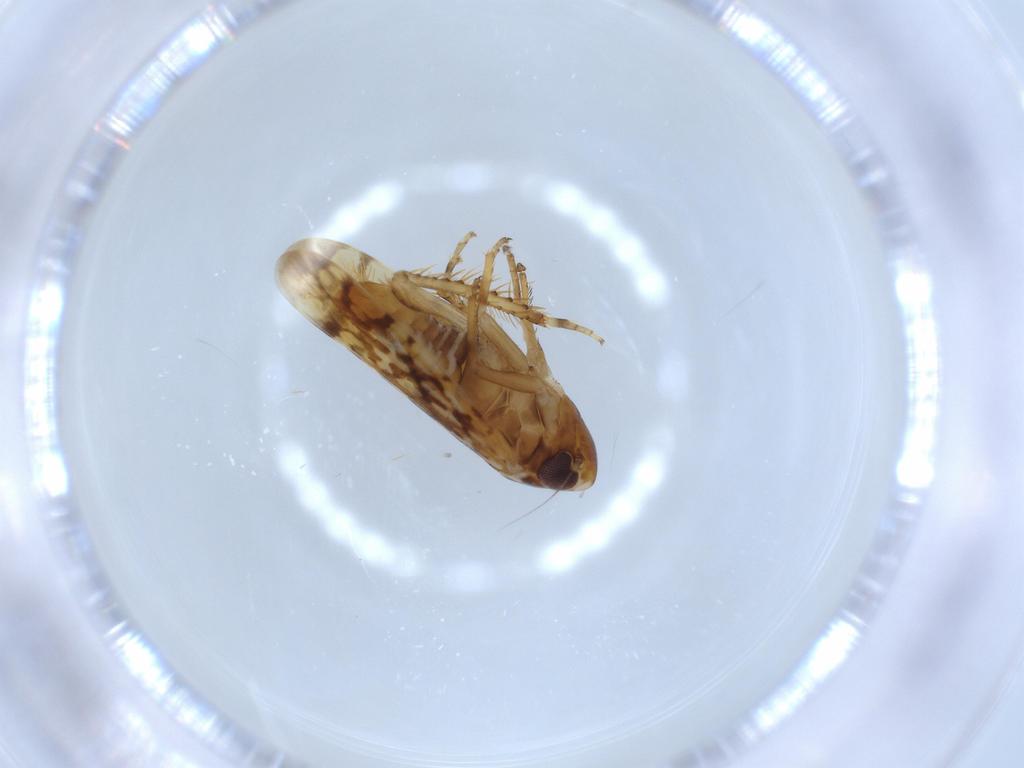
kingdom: Animalia
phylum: Arthropoda
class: Insecta
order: Hemiptera
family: Cicadellidae
